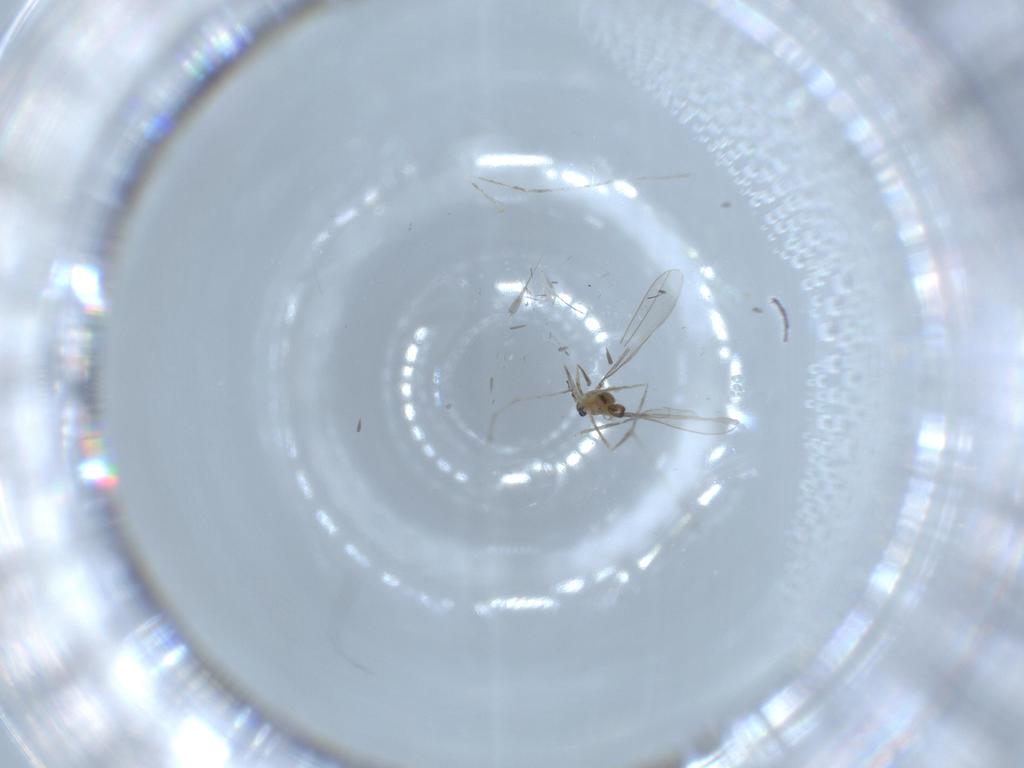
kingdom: Animalia
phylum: Arthropoda
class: Insecta
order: Diptera
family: Cecidomyiidae
